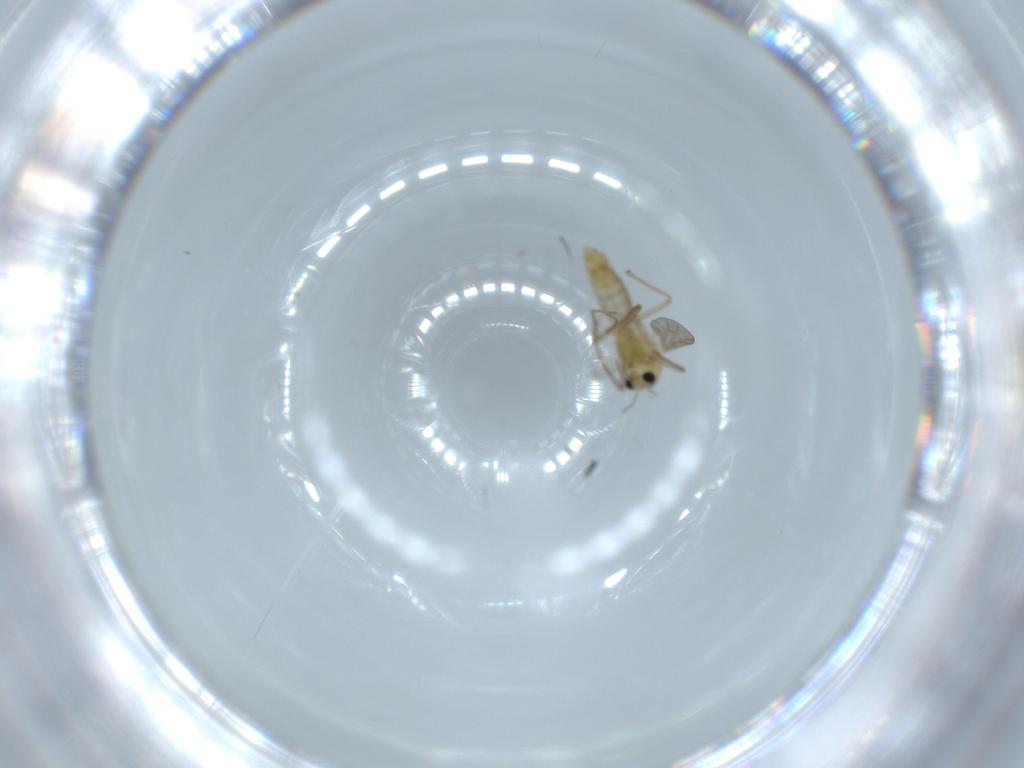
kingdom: Animalia
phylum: Arthropoda
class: Insecta
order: Diptera
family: Chironomidae
